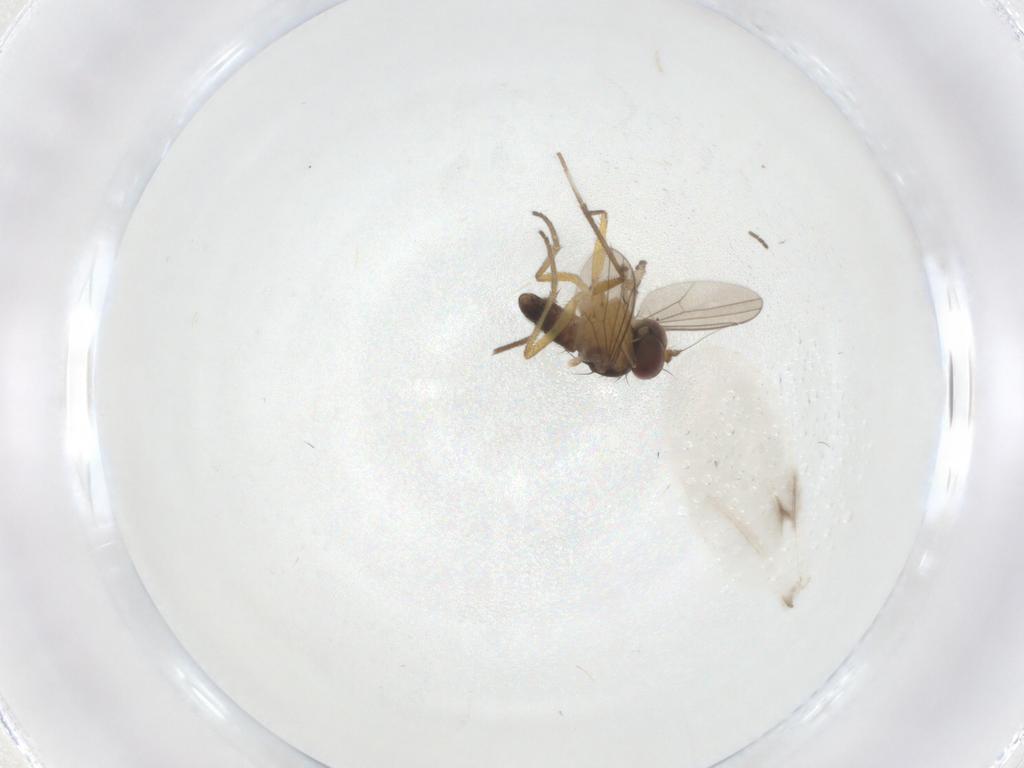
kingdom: Animalia
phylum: Arthropoda
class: Insecta
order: Diptera
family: Dolichopodidae
